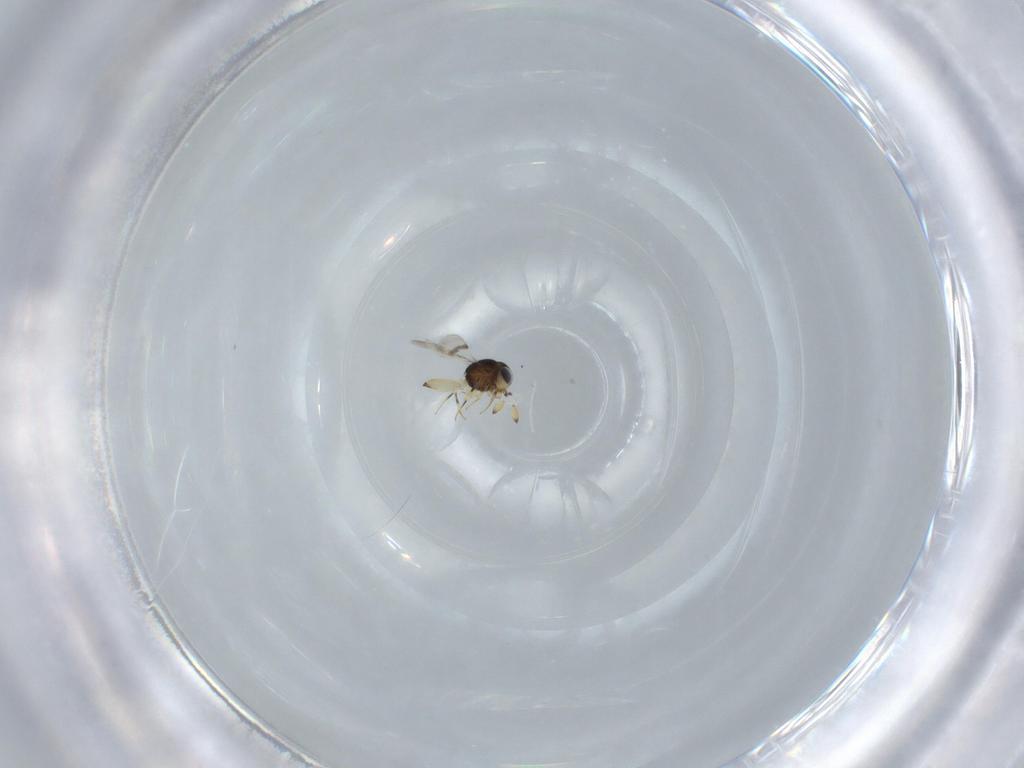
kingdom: Animalia
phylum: Arthropoda
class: Insecta
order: Hymenoptera
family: Scelionidae
